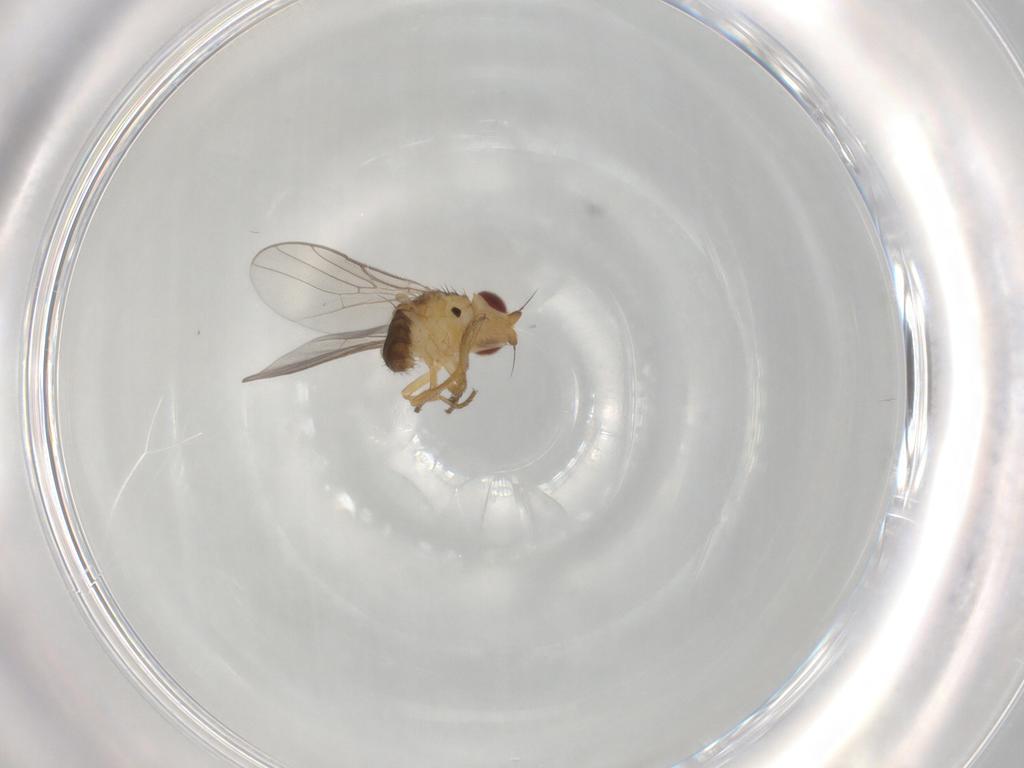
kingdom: Animalia
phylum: Arthropoda
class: Insecta
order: Diptera
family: Chloropidae
